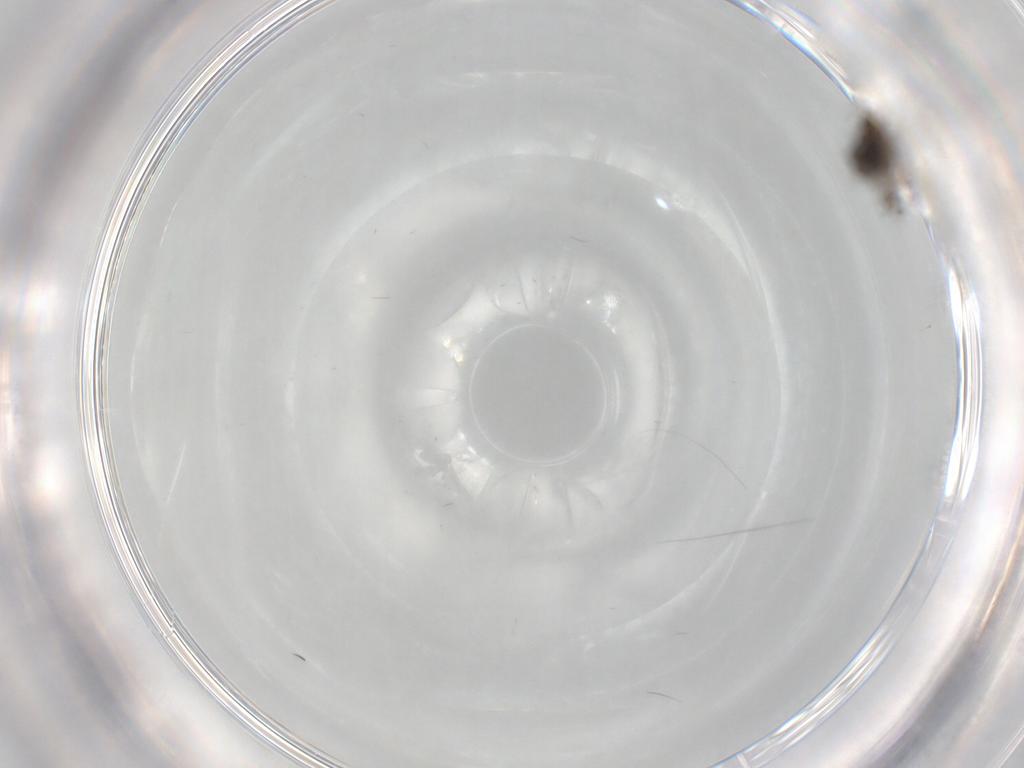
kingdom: Animalia
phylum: Arthropoda
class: Insecta
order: Diptera
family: Sciaridae
